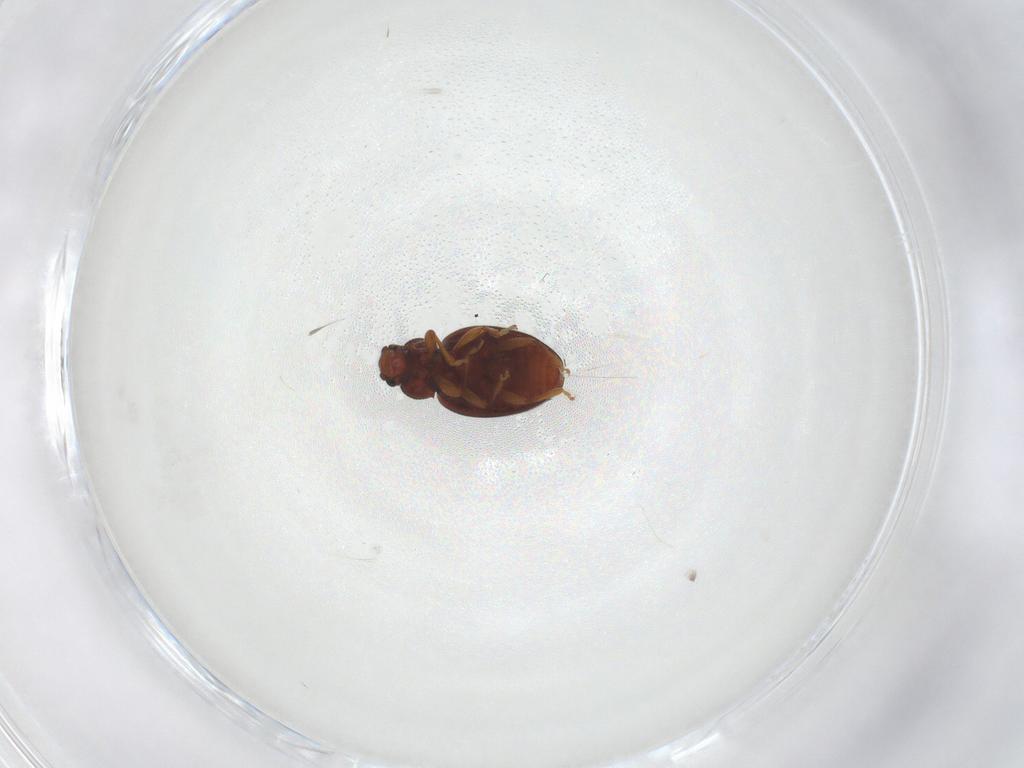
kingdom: Animalia
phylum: Arthropoda
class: Insecta
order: Coleoptera
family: Latridiidae
